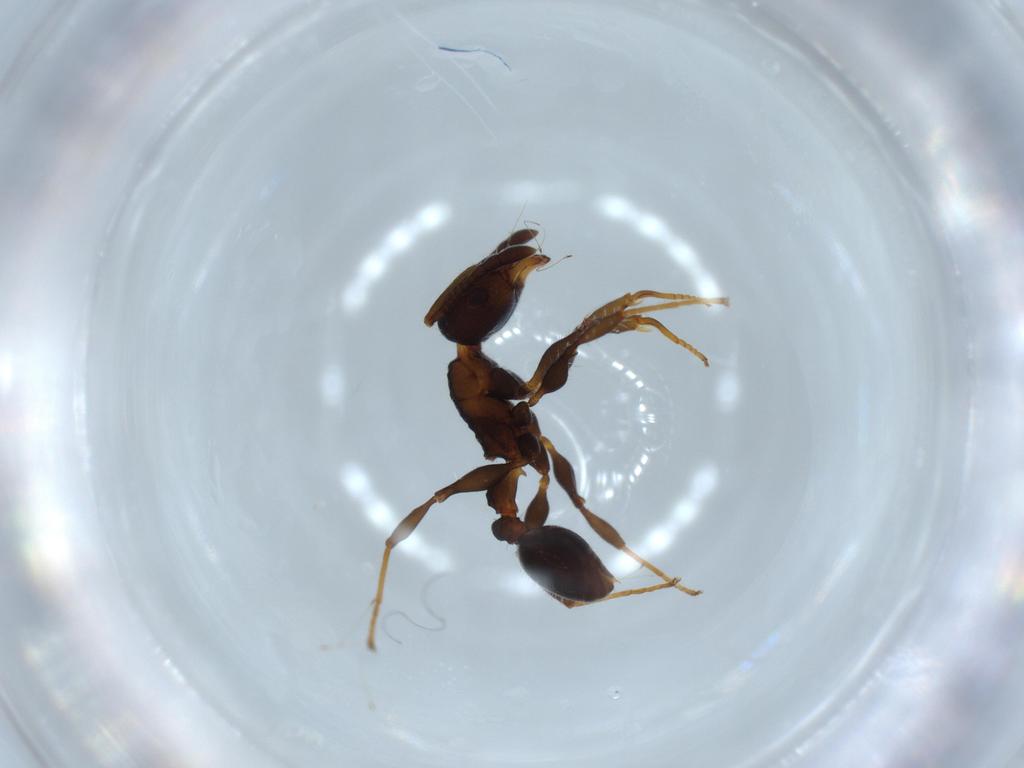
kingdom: Animalia
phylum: Arthropoda
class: Insecta
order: Hymenoptera
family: Formicidae
